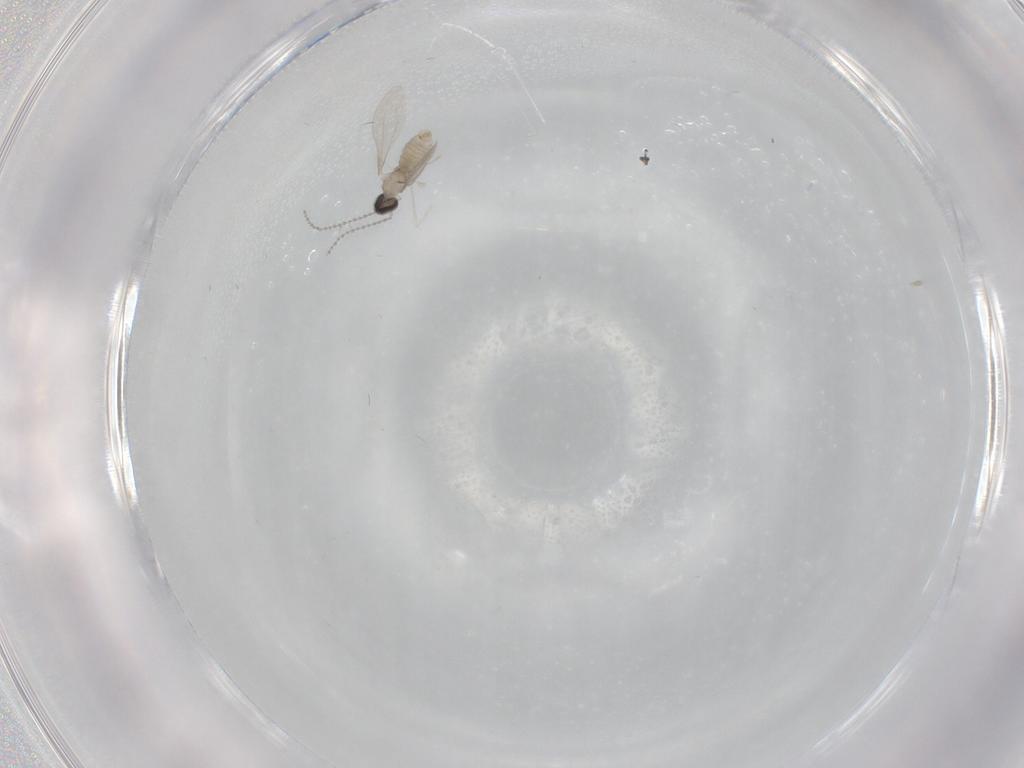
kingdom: Animalia
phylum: Arthropoda
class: Insecta
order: Diptera
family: Cecidomyiidae
